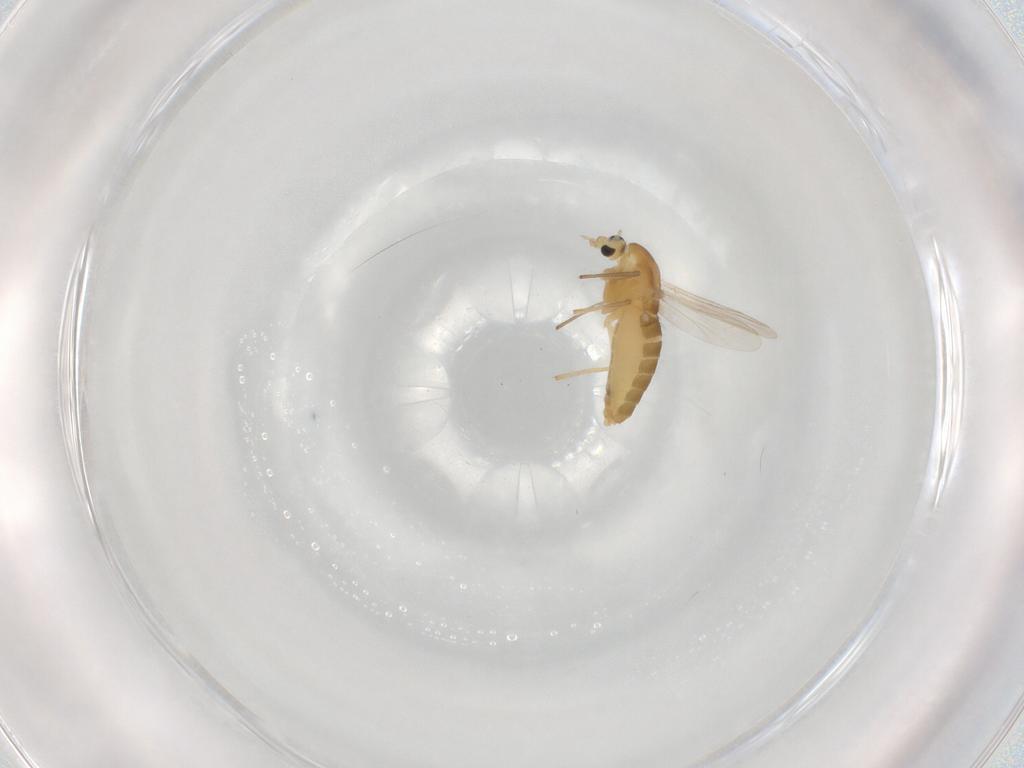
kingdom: Animalia
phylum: Arthropoda
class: Insecta
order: Diptera
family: Chironomidae
